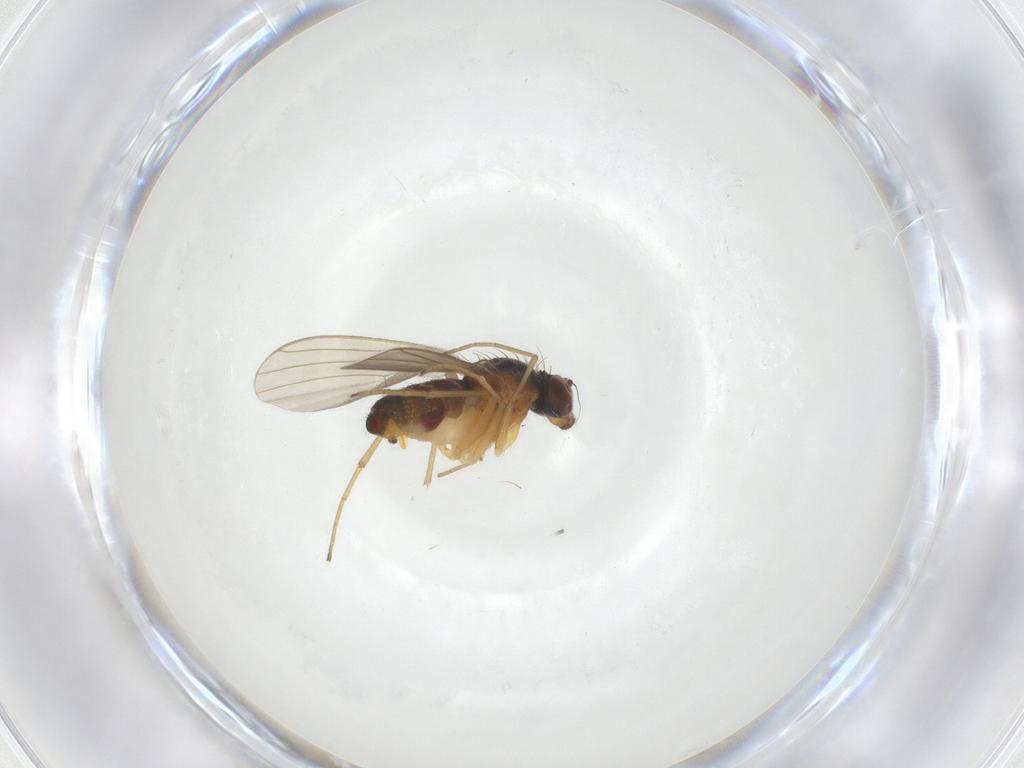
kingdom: Animalia
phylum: Arthropoda
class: Insecta
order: Diptera
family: Dolichopodidae
